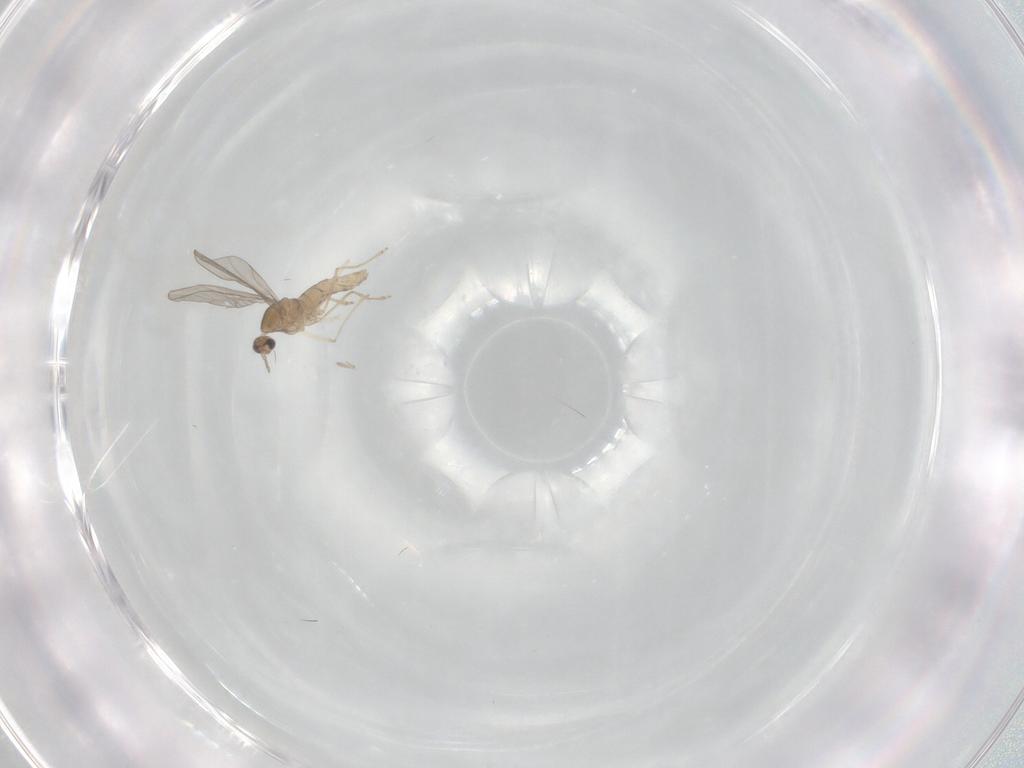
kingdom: Animalia
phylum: Arthropoda
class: Insecta
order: Diptera
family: Cecidomyiidae
